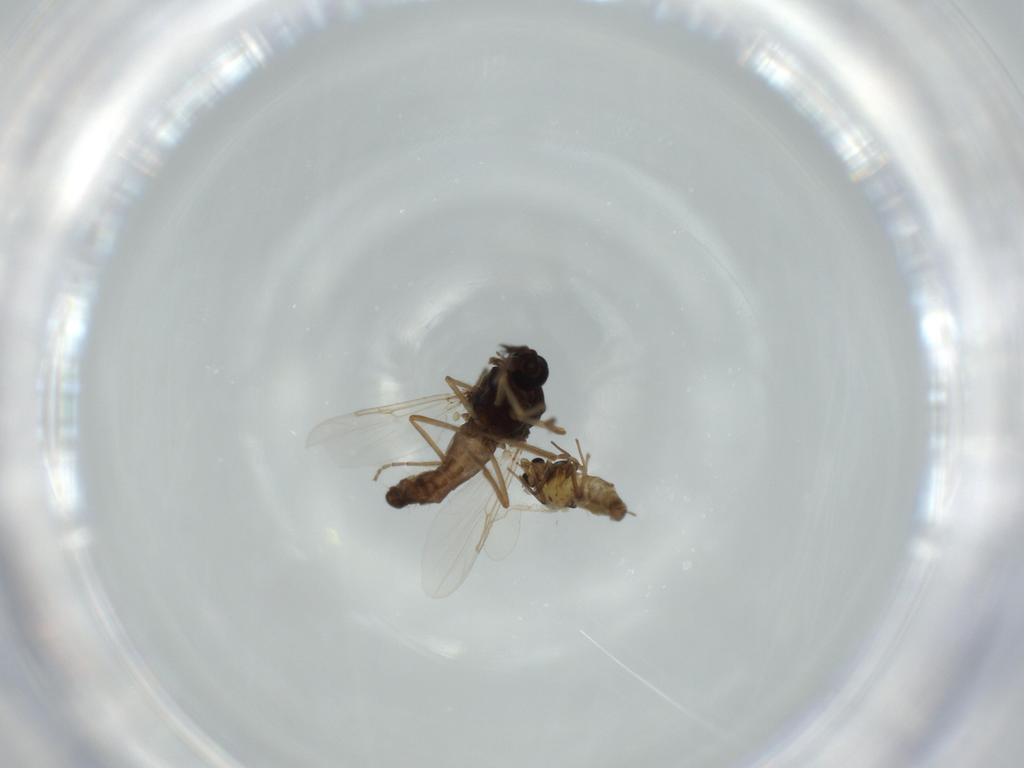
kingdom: Animalia
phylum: Arthropoda
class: Insecta
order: Diptera
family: Ceratopogonidae
